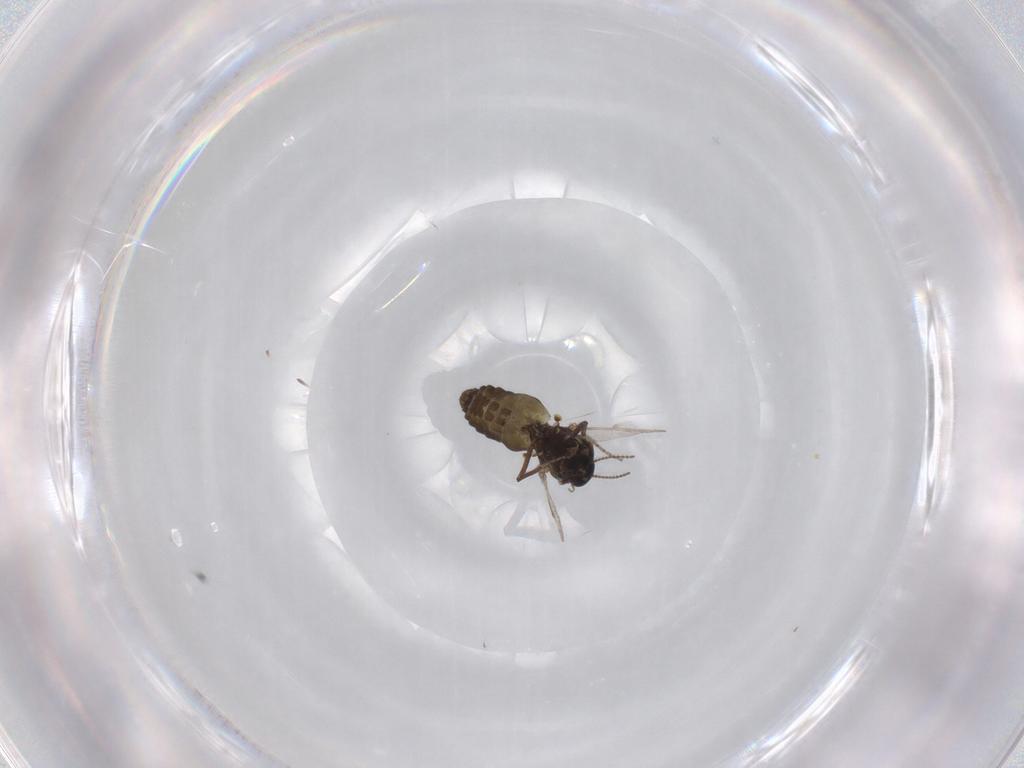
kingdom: Animalia
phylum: Arthropoda
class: Insecta
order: Diptera
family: Ceratopogonidae
